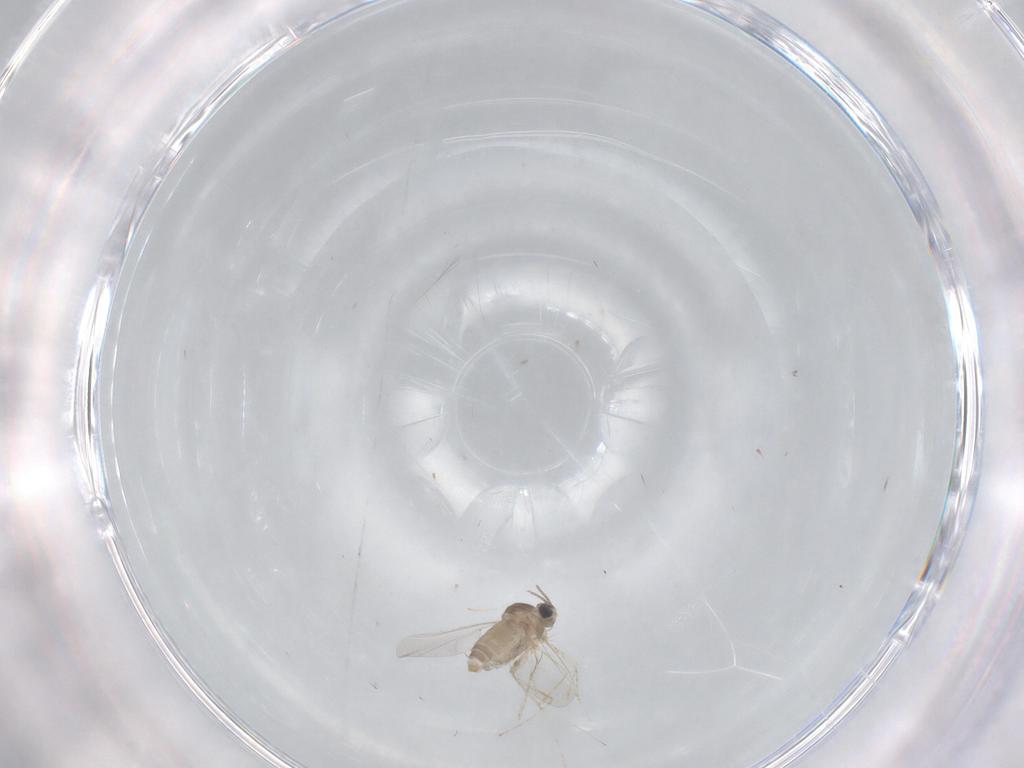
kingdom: Animalia
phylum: Arthropoda
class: Insecta
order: Diptera
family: Cecidomyiidae
